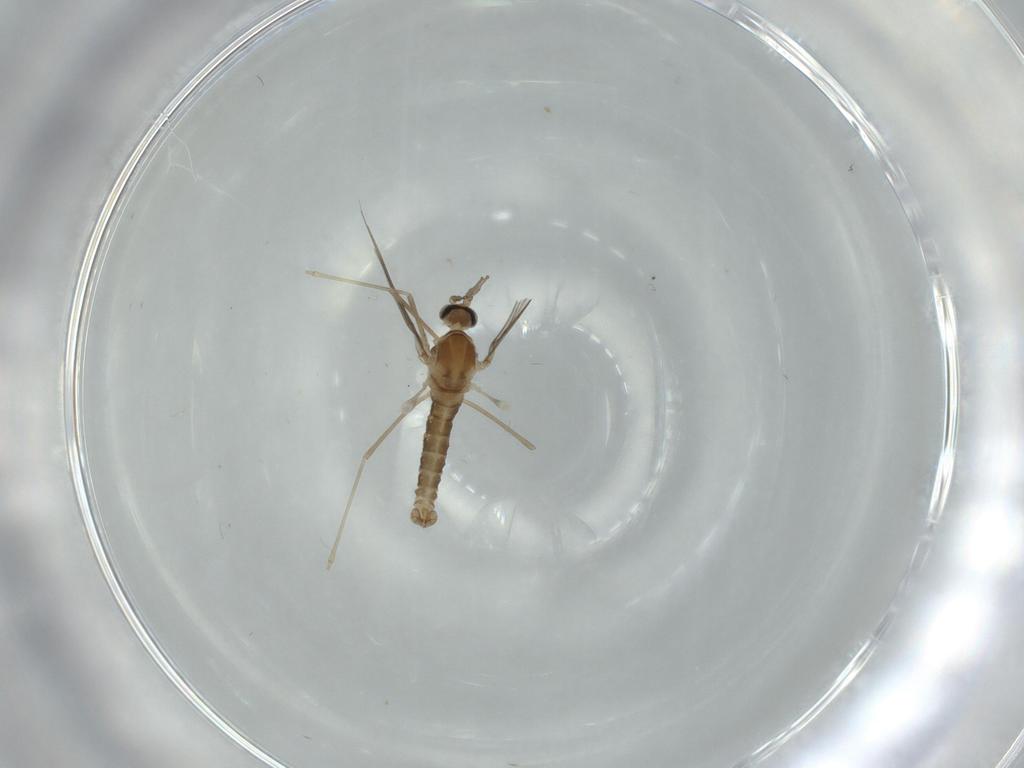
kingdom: Animalia
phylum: Arthropoda
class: Insecta
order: Diptera
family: Cecidomyiidae
